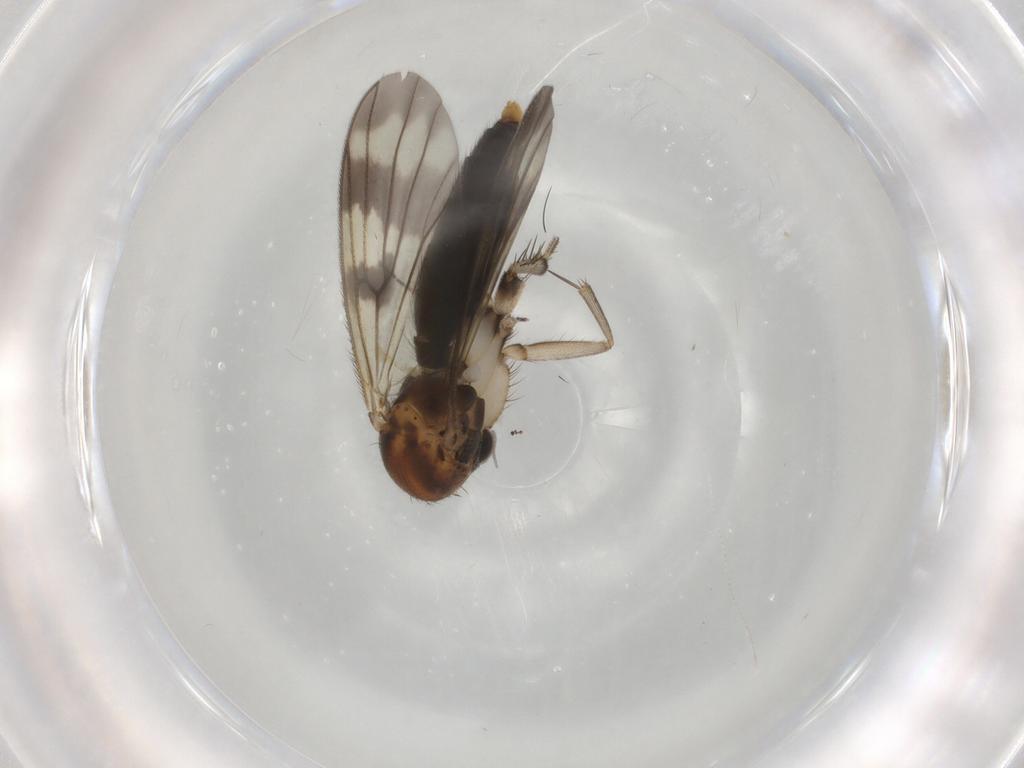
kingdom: Animalia
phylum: Arthropoda
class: Insecta
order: Diptera
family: Mycetophilidae
